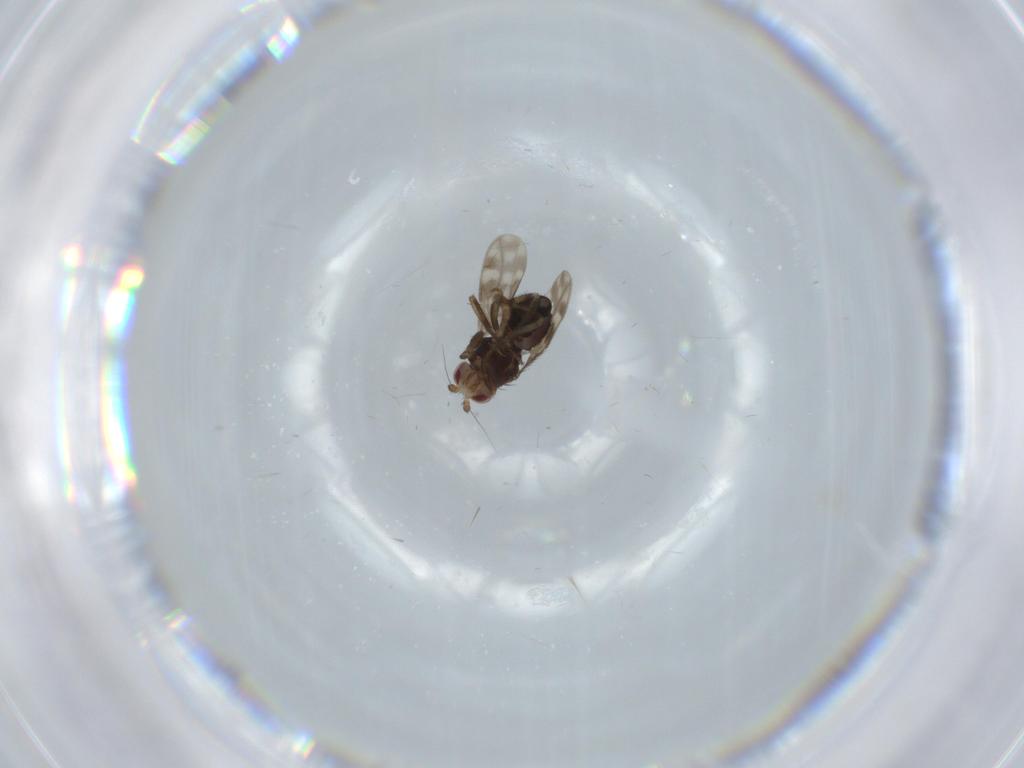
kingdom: Animalia
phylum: Arthropoda
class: Insecta
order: Diptera
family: Sphaeroceridae
